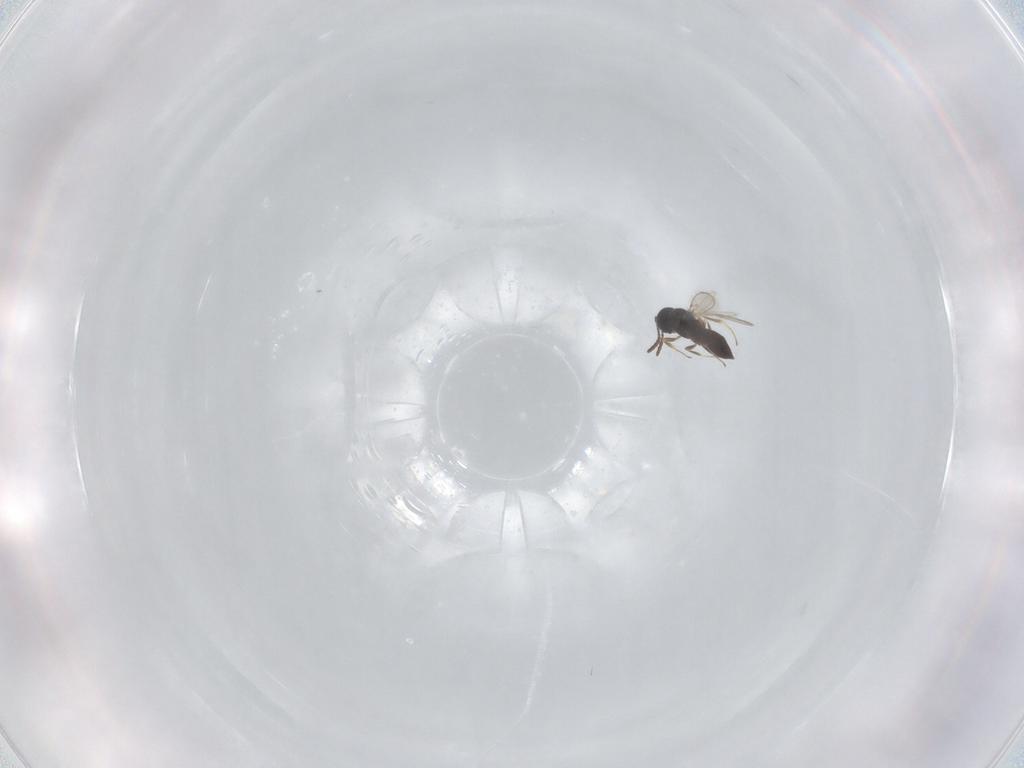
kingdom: Animalia
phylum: Arthropoda
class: Insecta
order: Hymenoptera
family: Scelionidae
